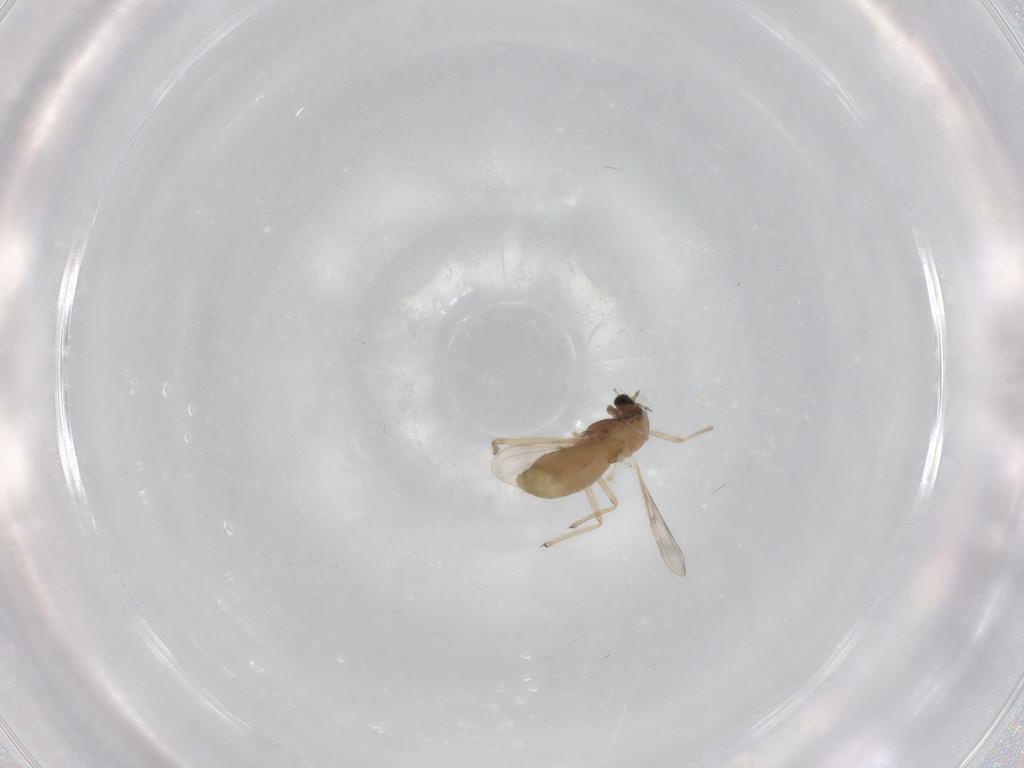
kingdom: Animalia
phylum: Arthropoda
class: Insecta
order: Diptera
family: Chironomidae
